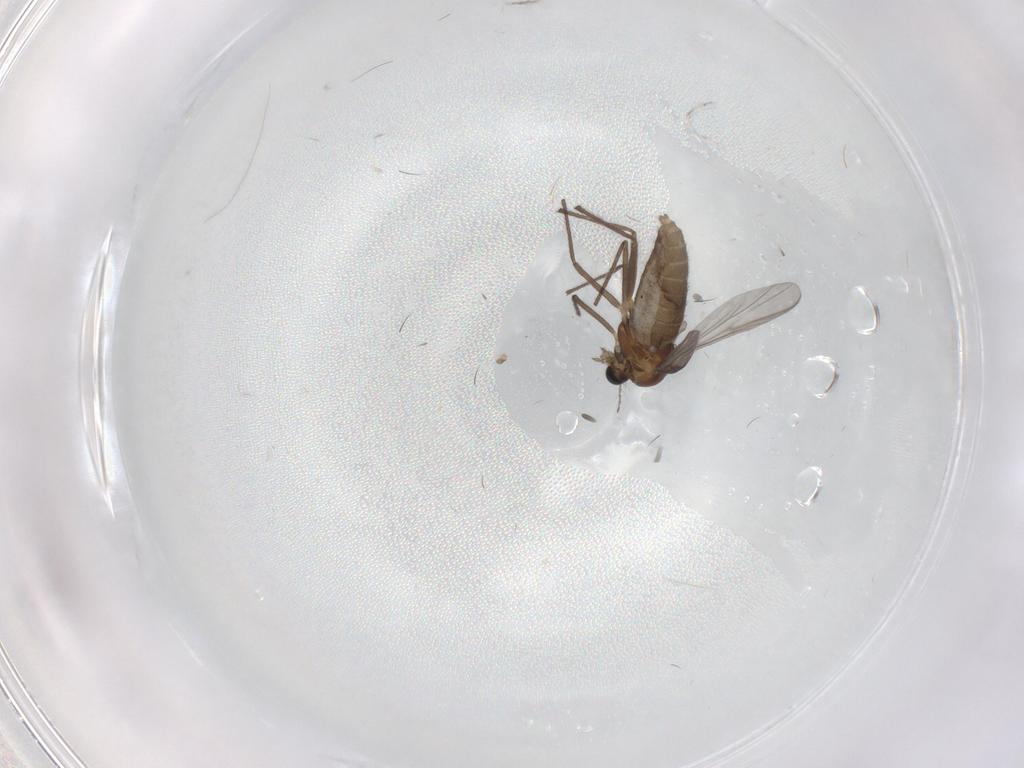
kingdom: Animalia
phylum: Arthropoda
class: Insecta
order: Diptera
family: Chironomidae
